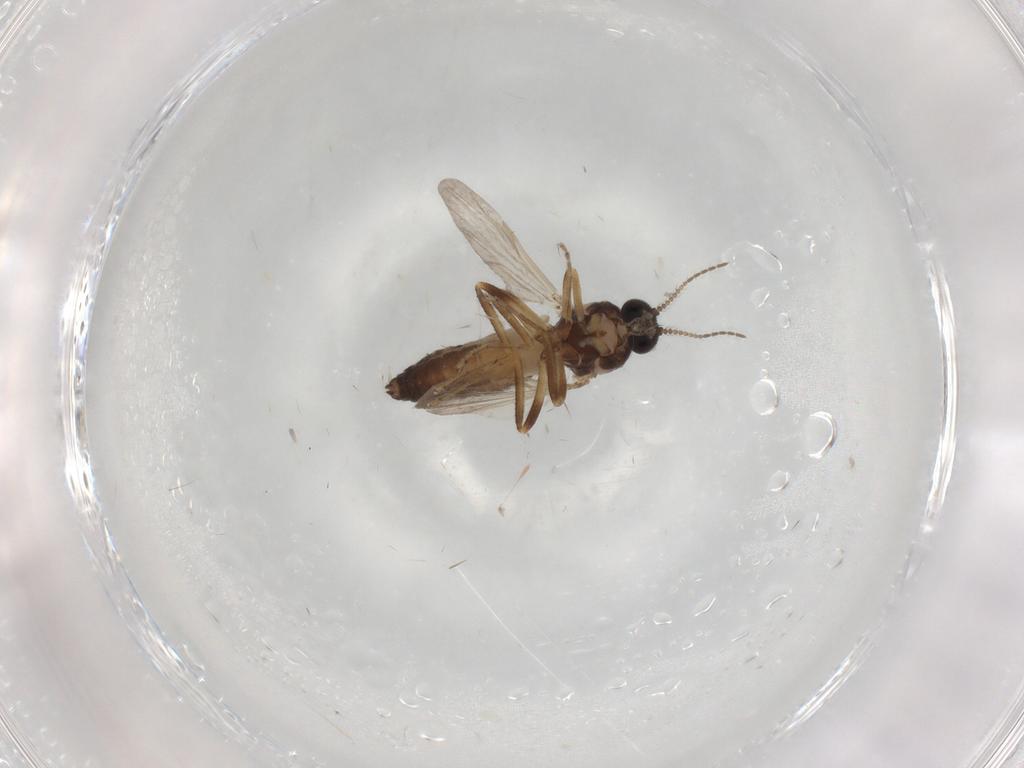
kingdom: Animalia
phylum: Arthropoda
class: Insecta
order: Diptera
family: Ceratopogonidae
